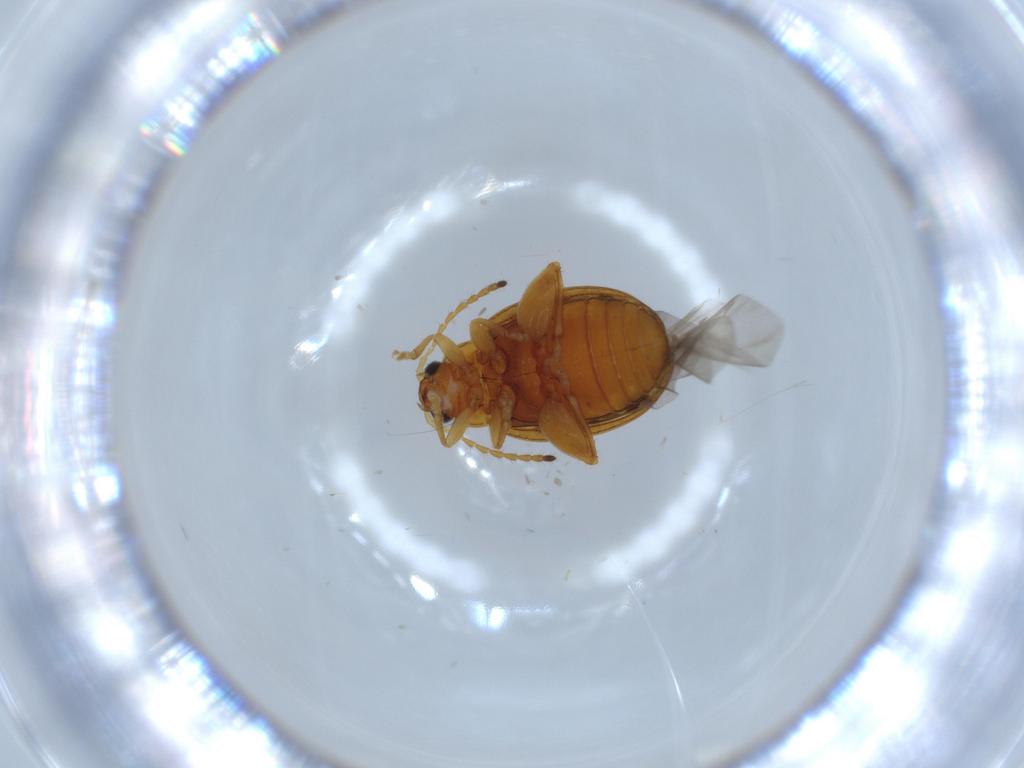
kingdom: Animalia
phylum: Arthropoda
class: Insecta
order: Coleoptera
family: Chrysomelidae
